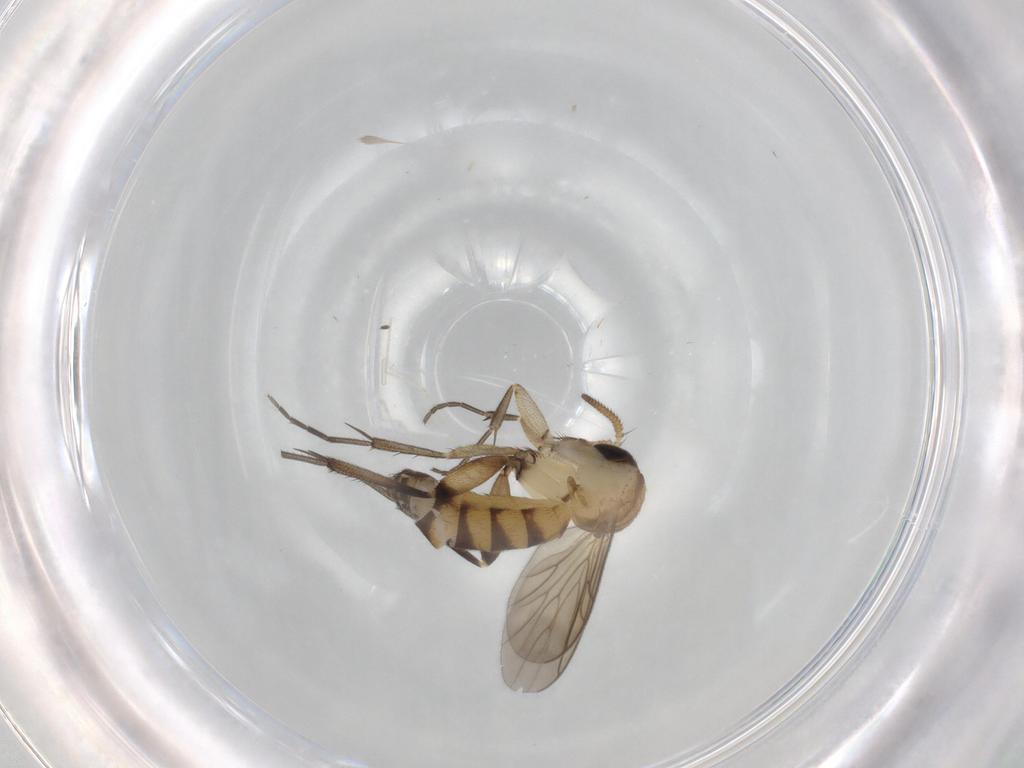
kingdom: Animalia
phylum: Arthropoda
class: Insecta
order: Diptera
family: Mycetophilidae
